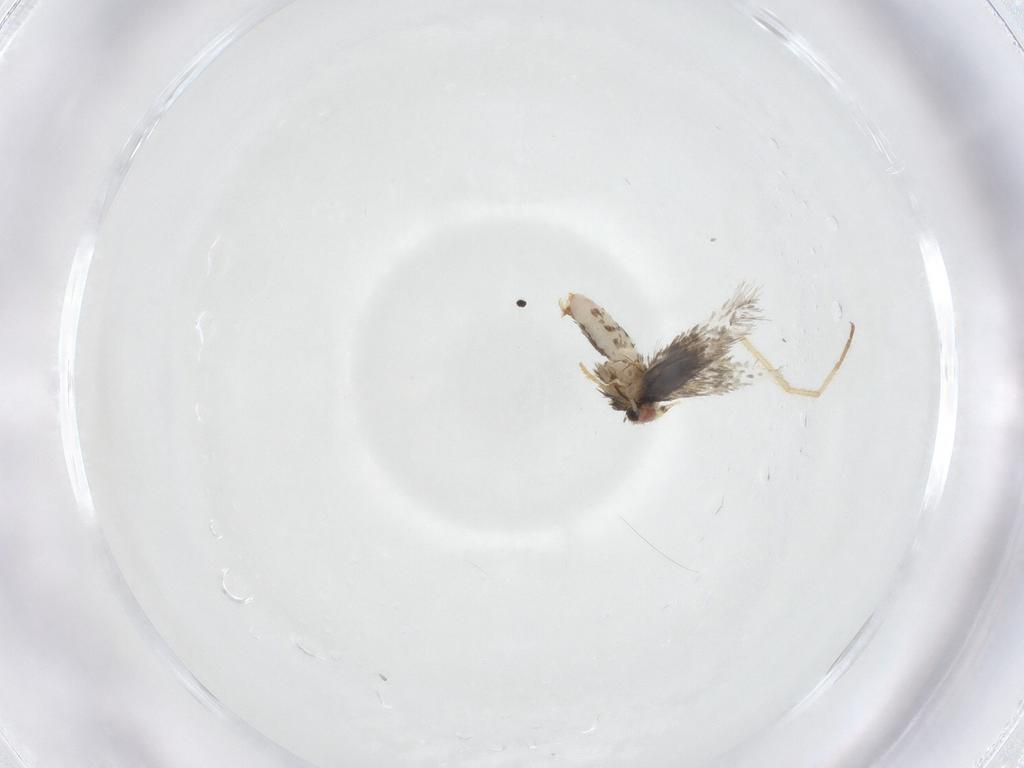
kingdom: Animalia
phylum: Arthropoda
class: Insecta
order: Lepidoptera
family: Nepticulidae
